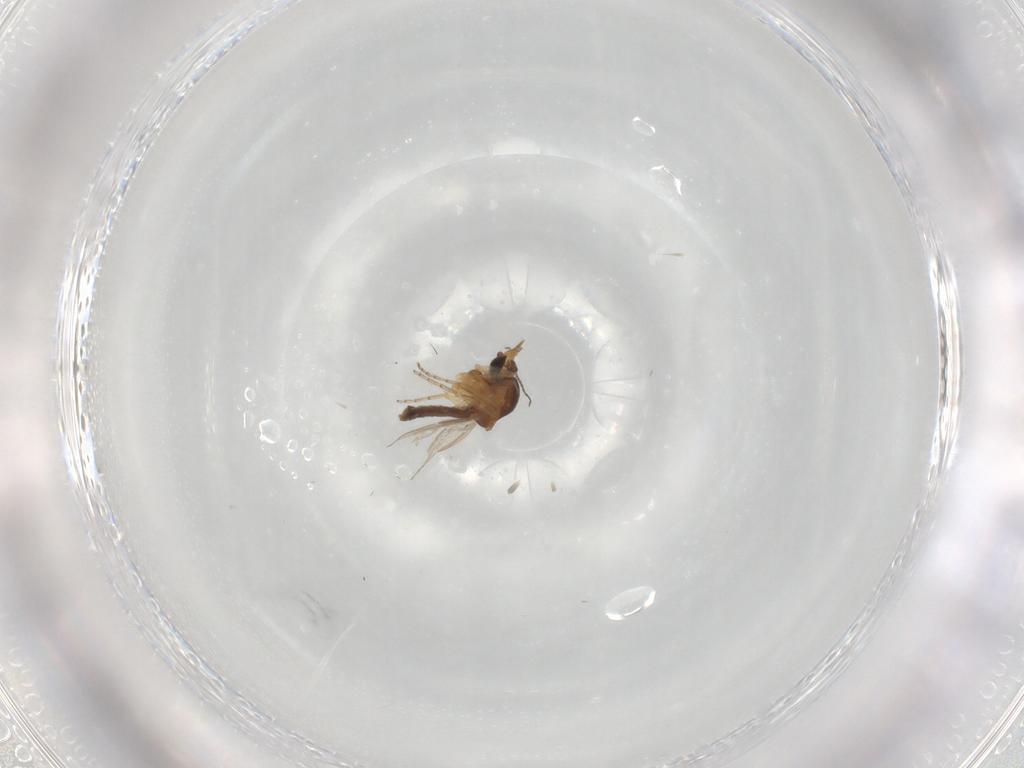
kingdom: Animalia
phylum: Arthropoda
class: Insecta
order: Diptera
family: Ceratopogonidae
